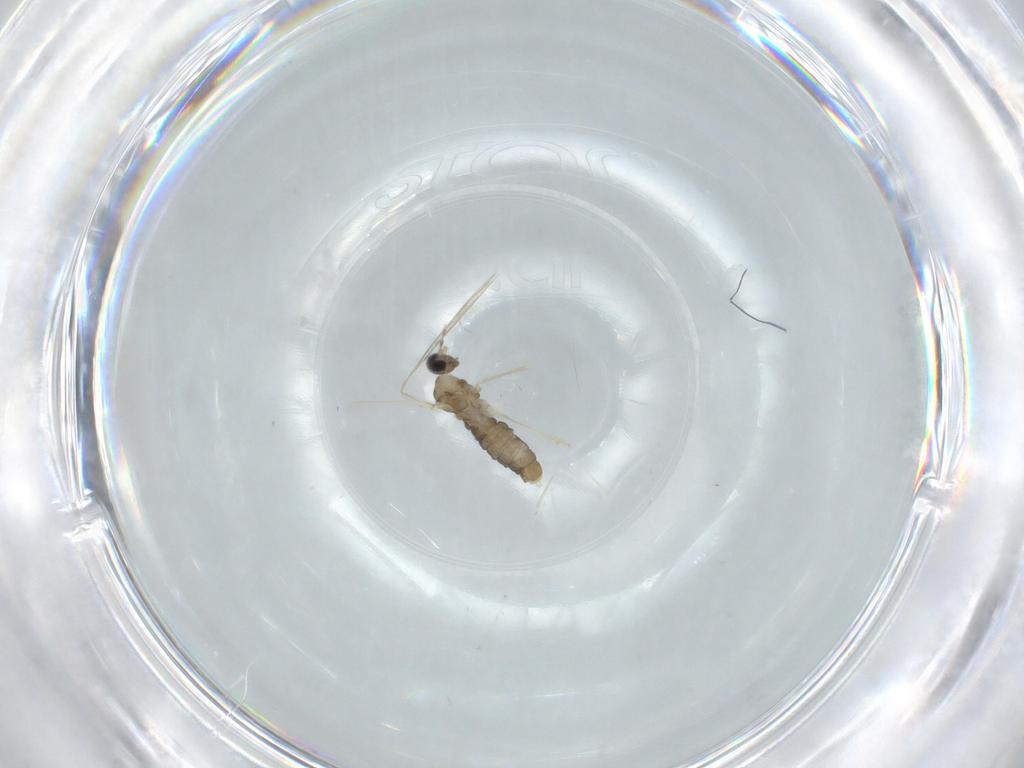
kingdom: Animalia
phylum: Arthropoda
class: Insecta
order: Diptera
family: Cecidomyiidae
